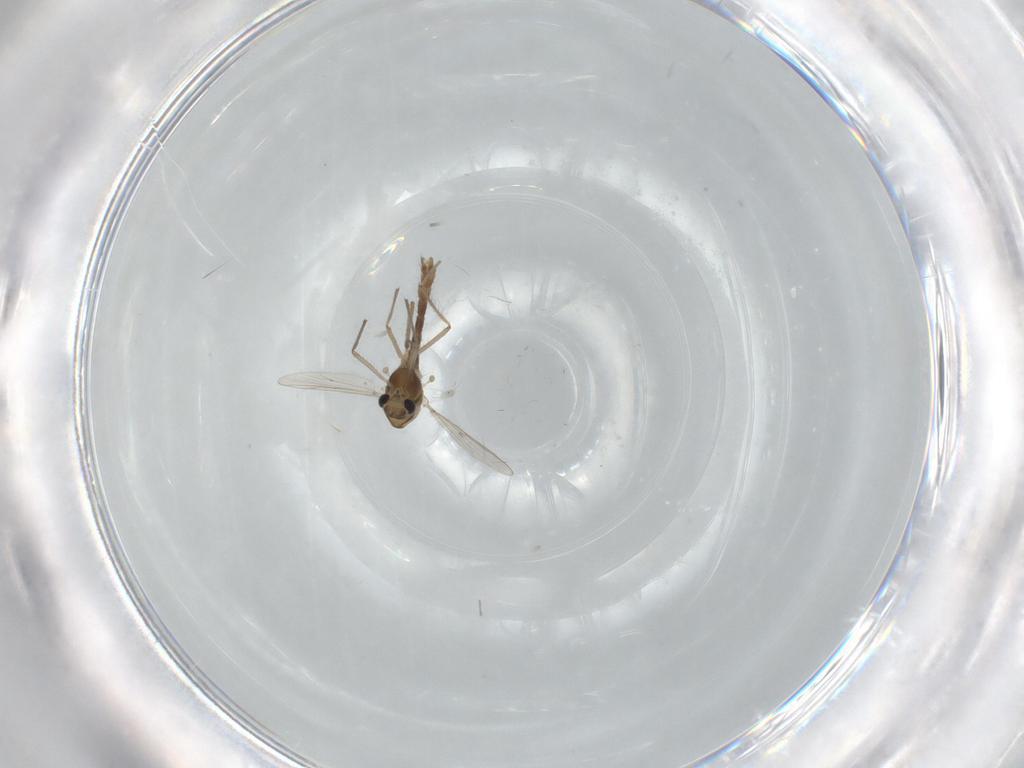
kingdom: Animalia
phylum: Arthropoda
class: Insecta
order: Diptera
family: Chironomidae
